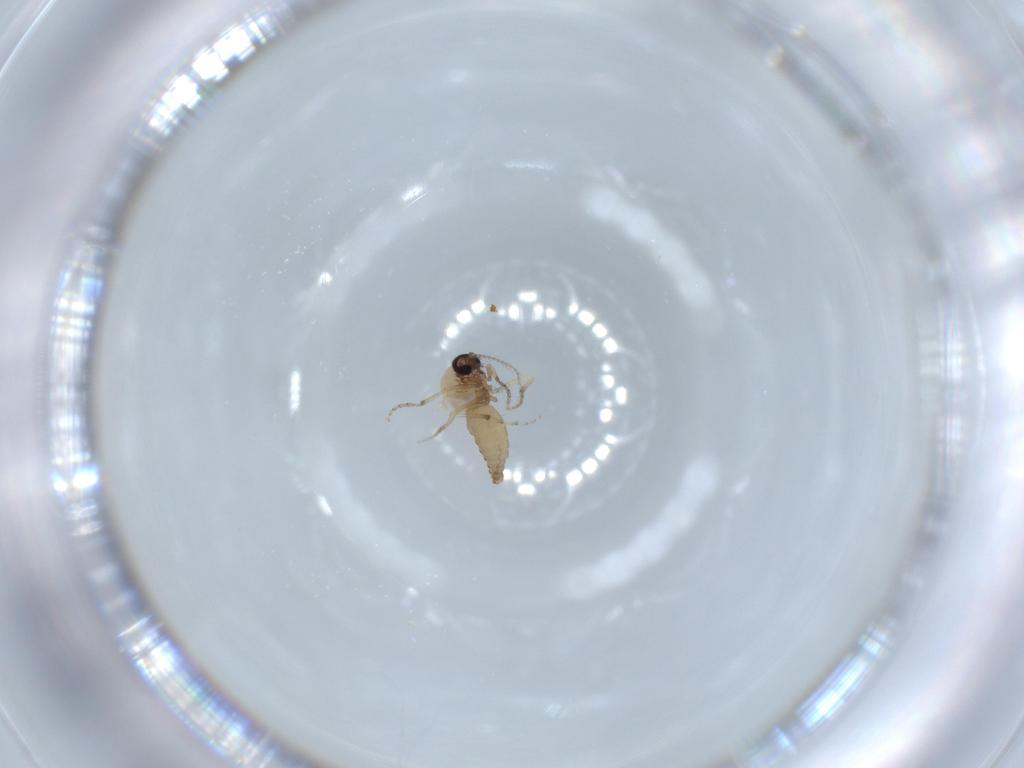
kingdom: Animalia
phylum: Arthropoda
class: Insecta
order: Diptera
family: Ceratopogonidae
